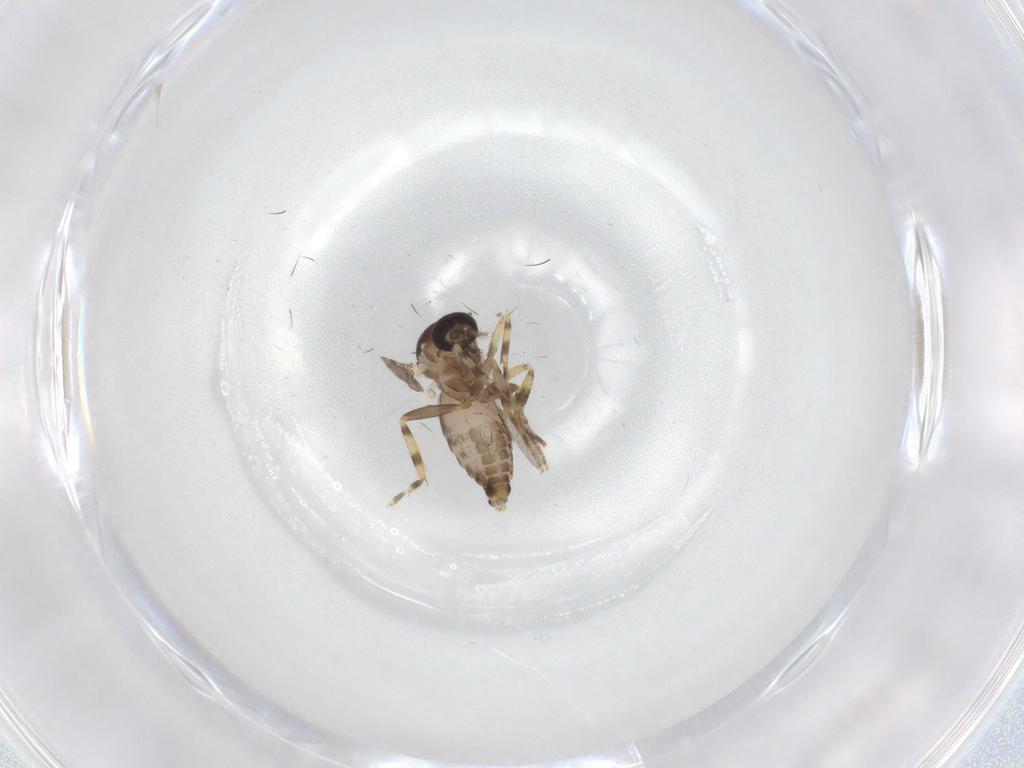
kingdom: Animalia
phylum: Arthropoda
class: Insecta
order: Diptera
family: Ceratopogonidae
